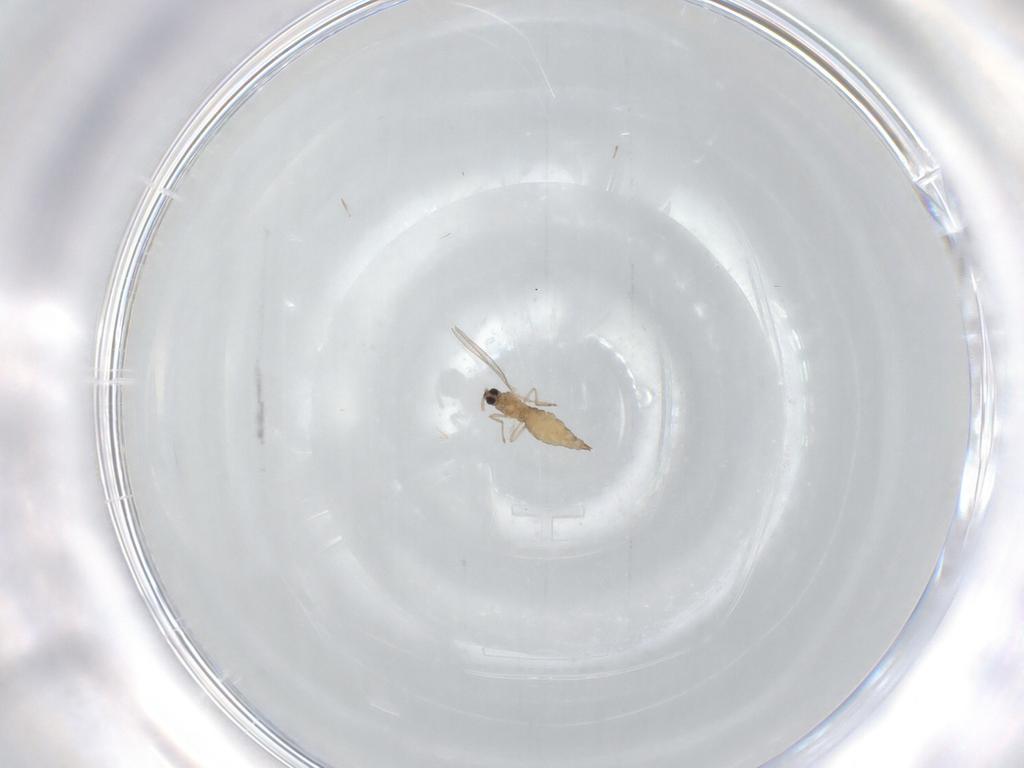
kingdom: Animalia
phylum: Arthropoda
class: Insecta
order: Diptera
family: Cecidomyiidae
